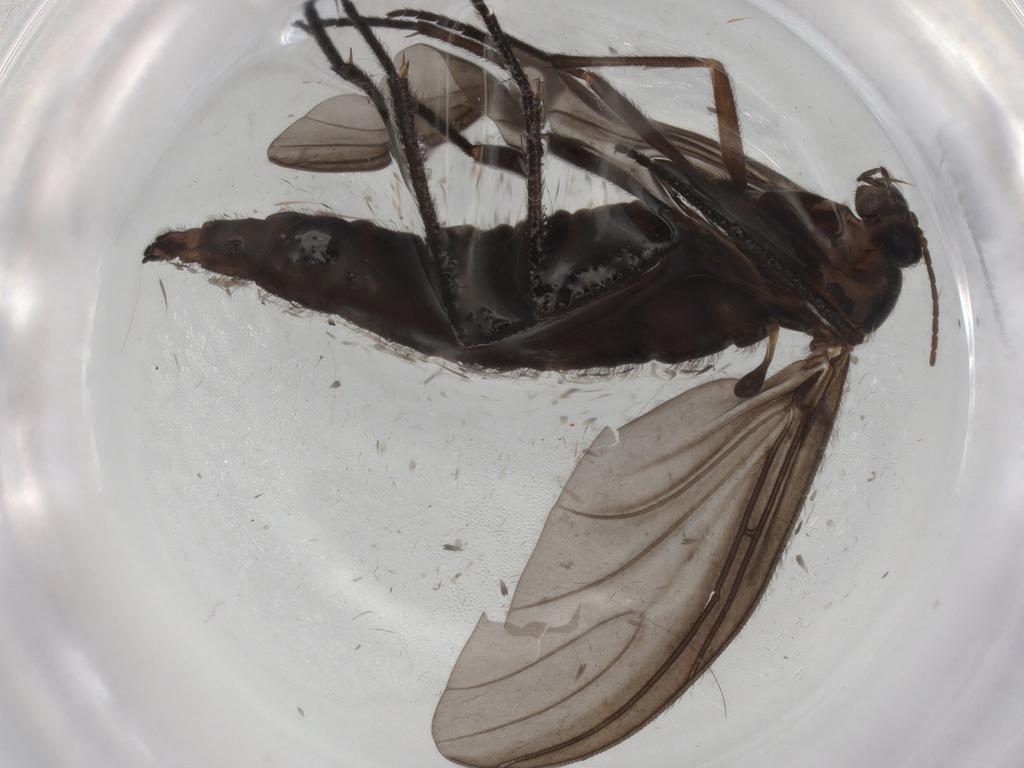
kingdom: Animalia
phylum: Arthropoda
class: Insecta
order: Diptera
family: Sciaridae
